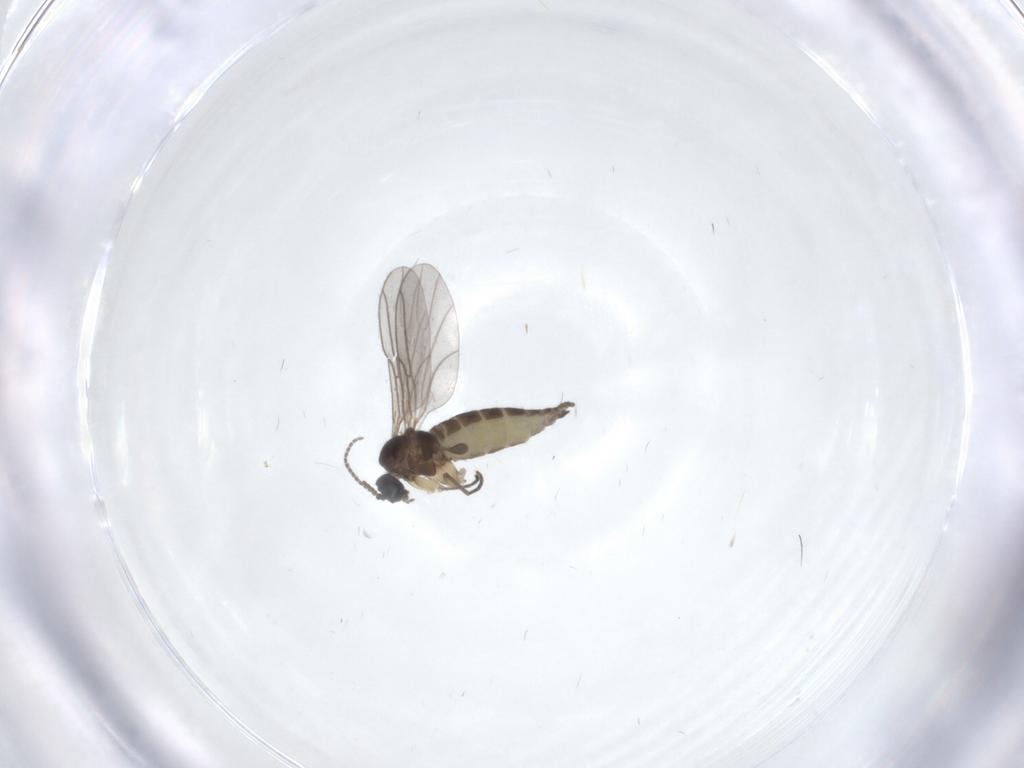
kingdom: Animalia
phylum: Arthropoda
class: Insecta
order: Diptera
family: Sciaridae
